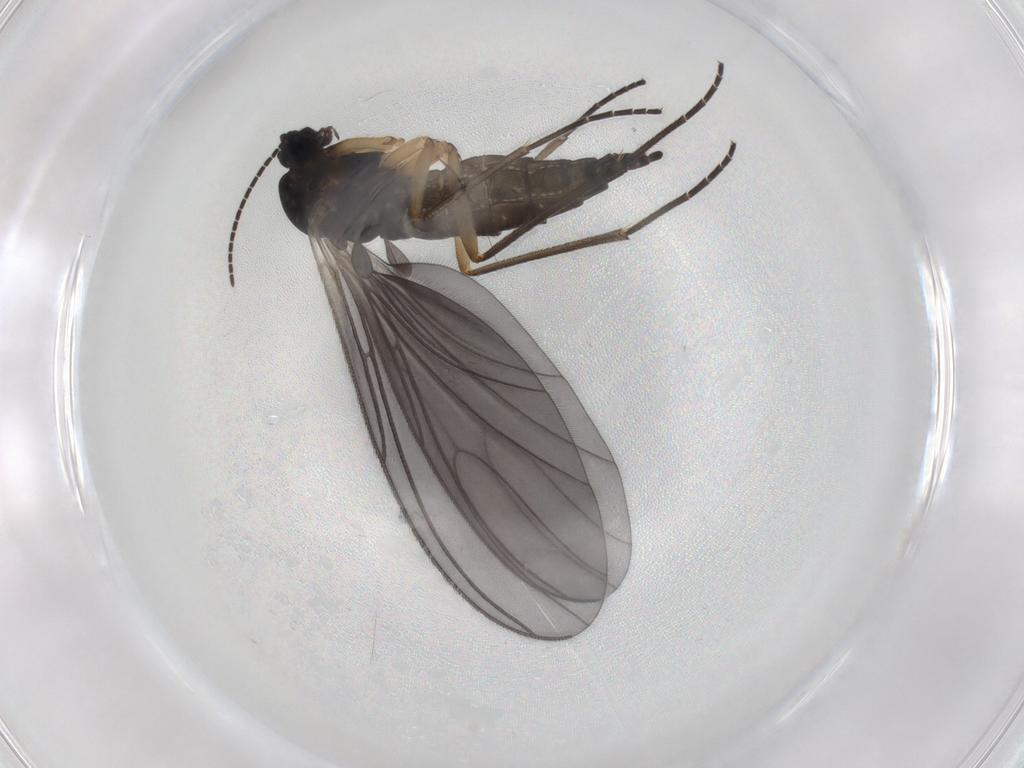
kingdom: Animalia
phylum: Arthropoda
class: Insecta
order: Diptera
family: Sciaridae
